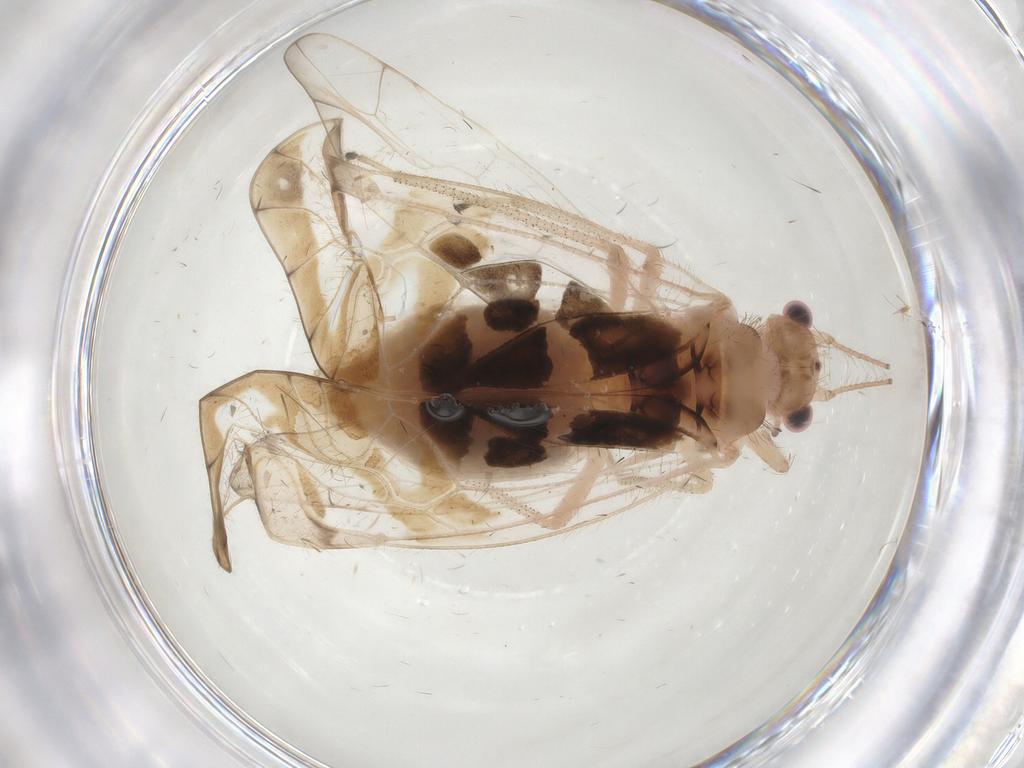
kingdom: Animalia
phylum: Arthropoda
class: Insecta
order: Psocodea
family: Amphipsocidae
